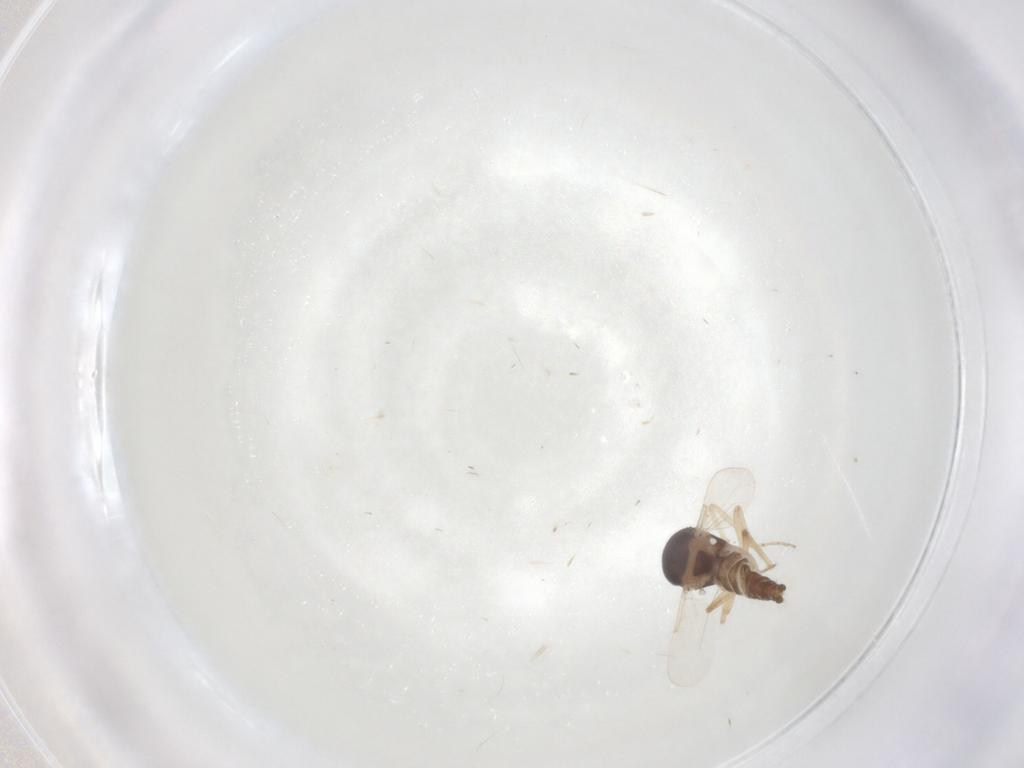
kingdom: Animalia
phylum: Arthropoda
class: Insecta
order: Diptera
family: Ceratopogonidae
